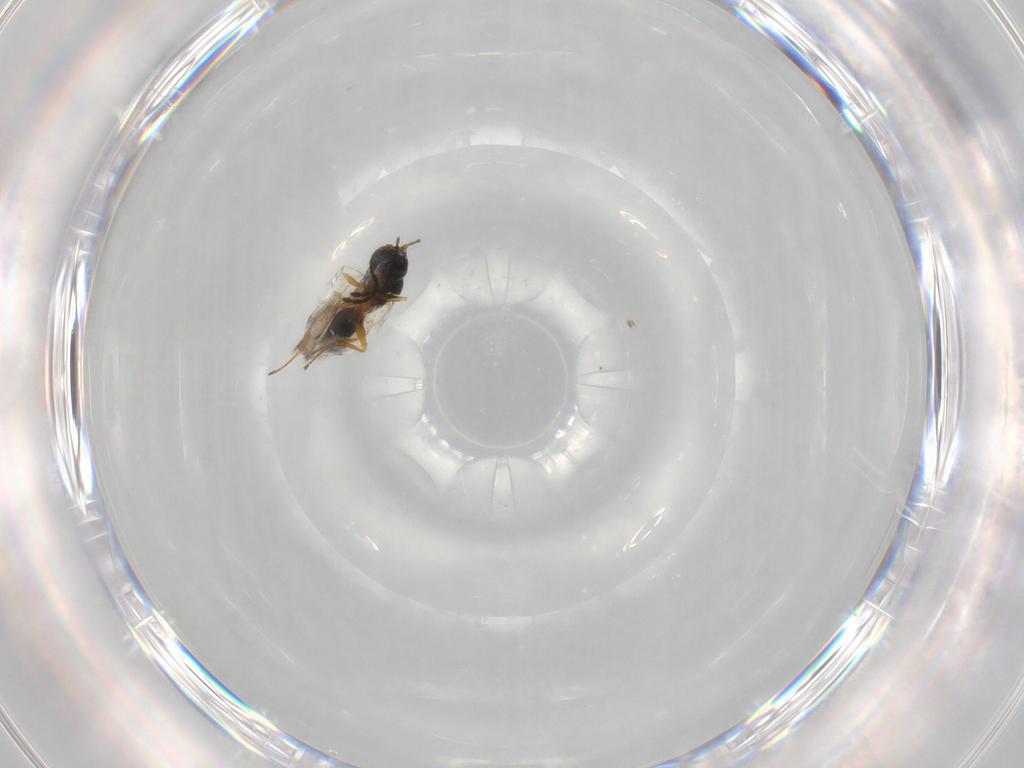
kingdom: Animalia
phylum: Arthropoda
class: Insecta
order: Hymenoptera
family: Figitidae
